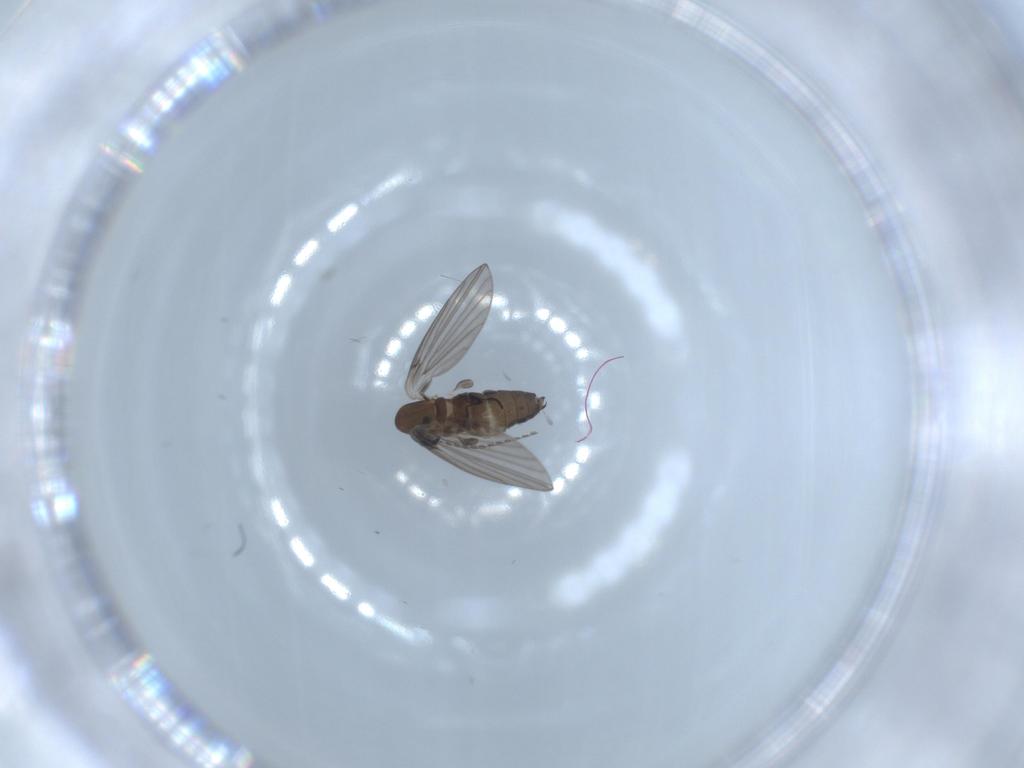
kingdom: Animalia
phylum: Arthropoda
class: Insecta
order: Diptera
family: Psychodidae
